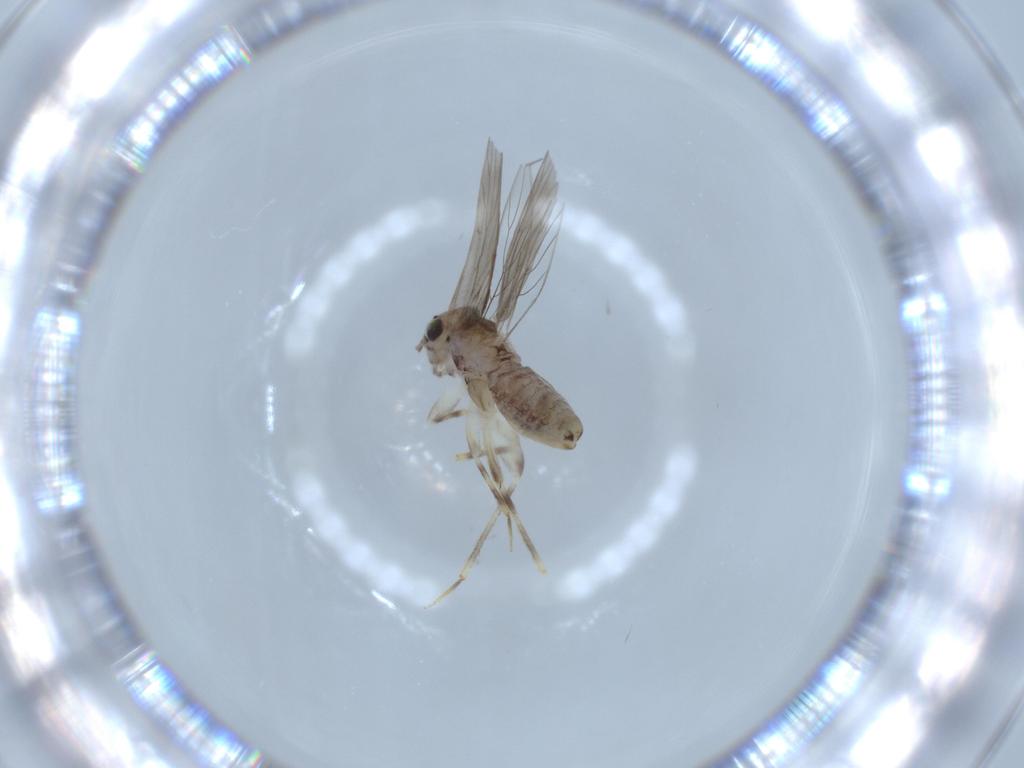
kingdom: Animalia
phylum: Arthropoda
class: Insecta
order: Psocodea
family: Lepidopsocidae
